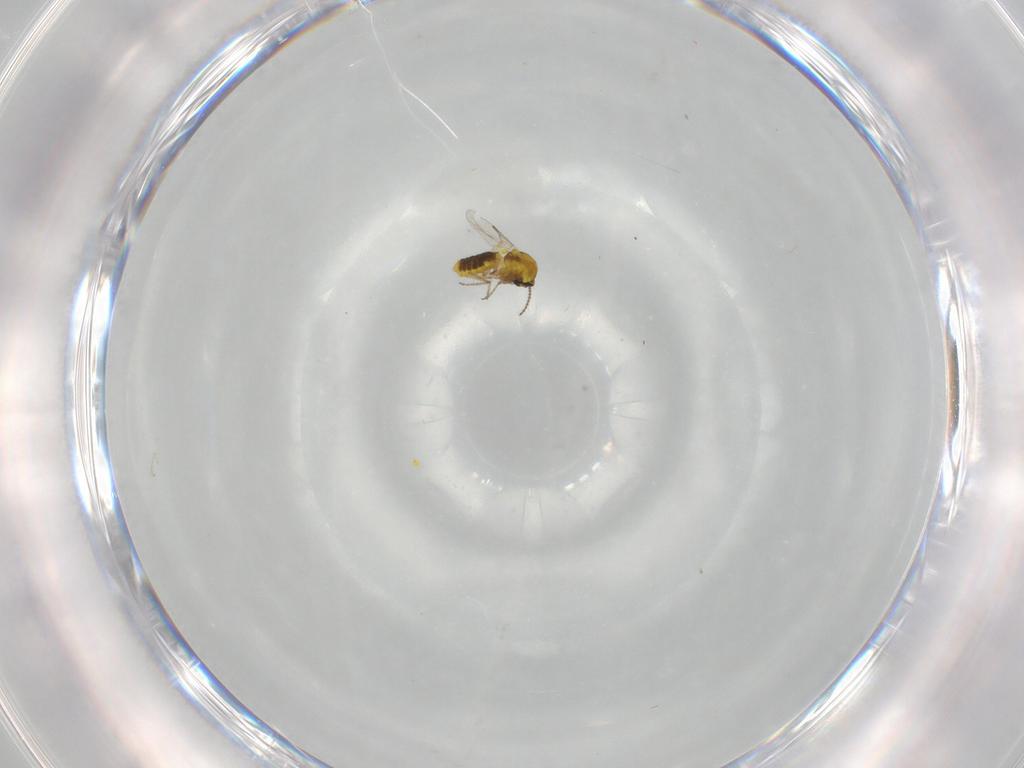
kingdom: Animalia
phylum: Arthropoda
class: Insecta
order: Diptera
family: Ceratopogonidae
